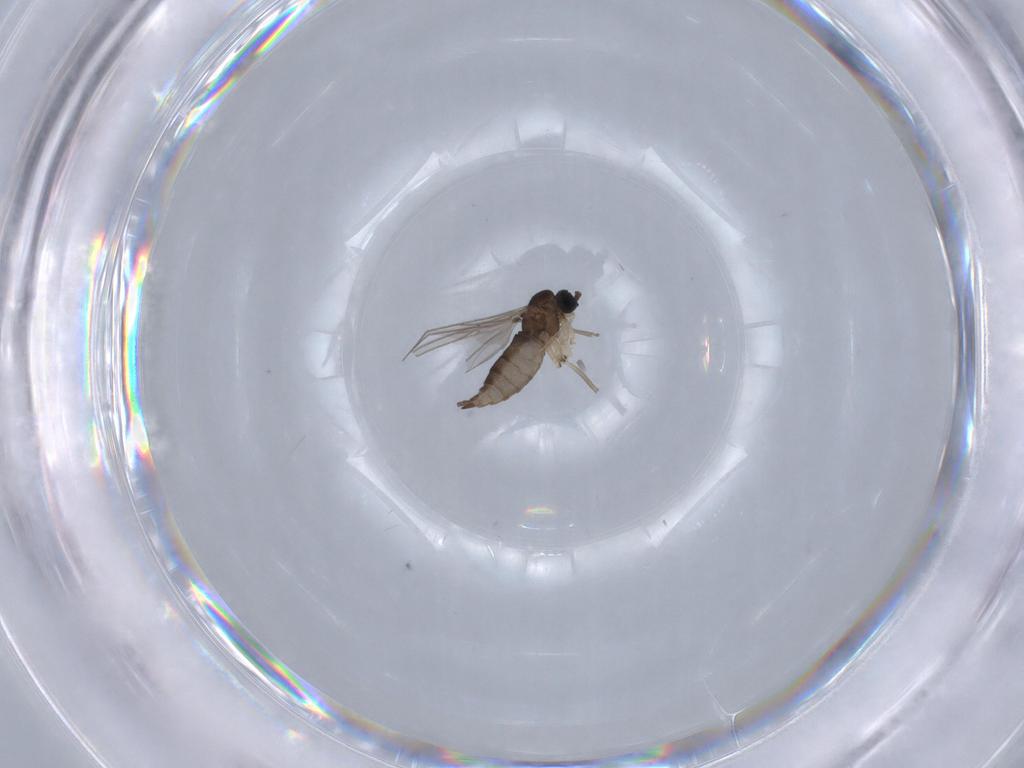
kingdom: Animalia
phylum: Arthropoda
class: Insecta
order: Diptera
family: Sciaridae
